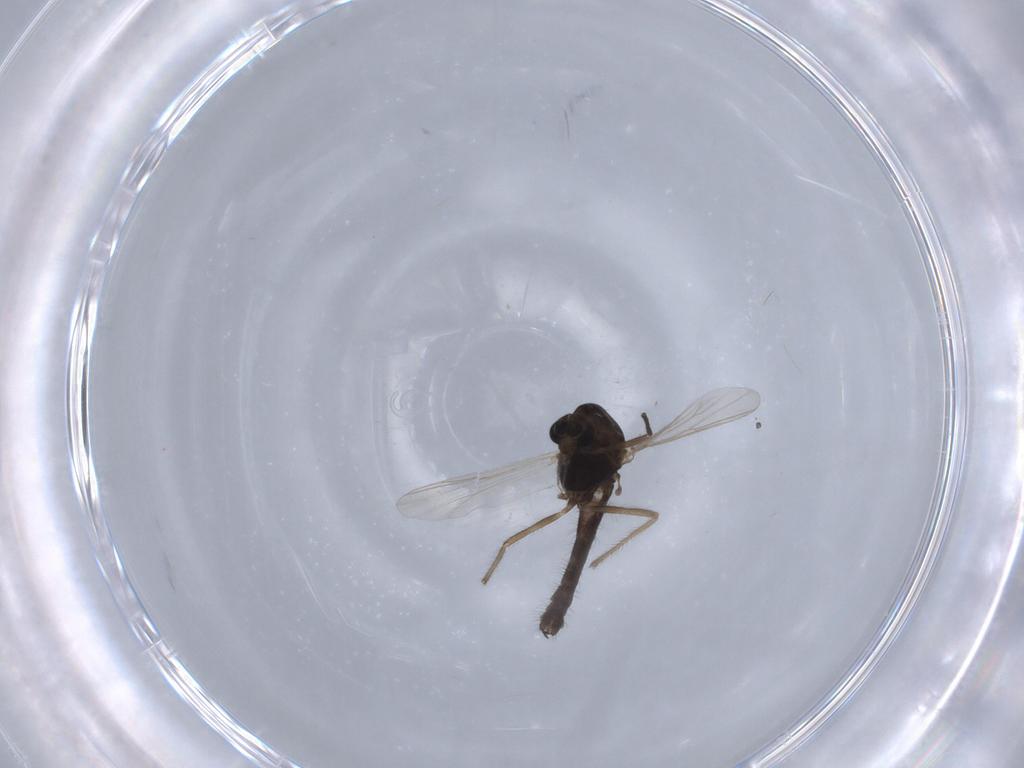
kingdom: Animalia
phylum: Arthropoda
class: Insecta
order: Diptera
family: Chironomidae
